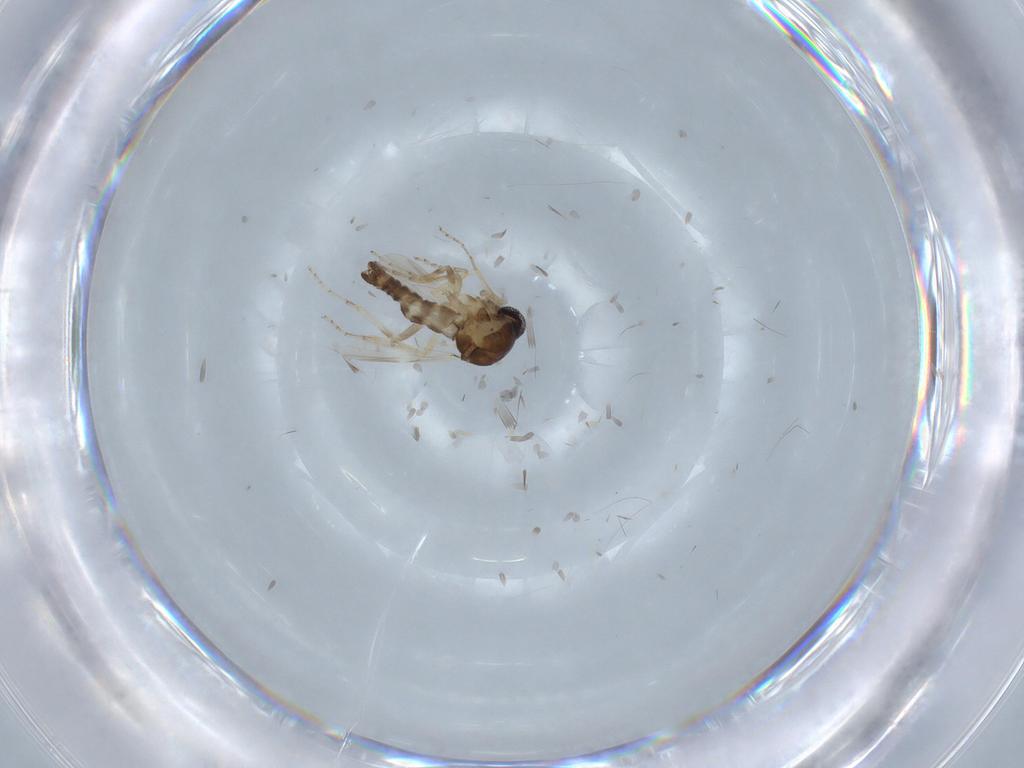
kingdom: Animalia
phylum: Arthropoda
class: Insecta
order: Diptera
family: Ceratopogonidae
